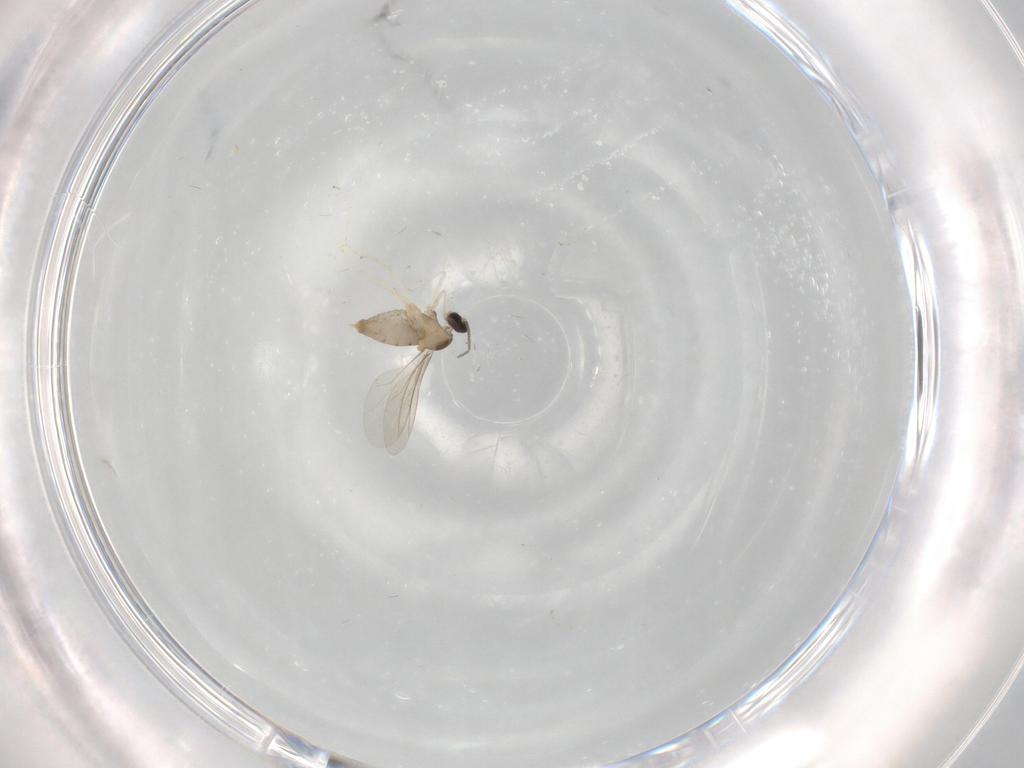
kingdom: Animalia
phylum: Arthropoda
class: Insecta
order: Diptera
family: Cecidomyiidae
